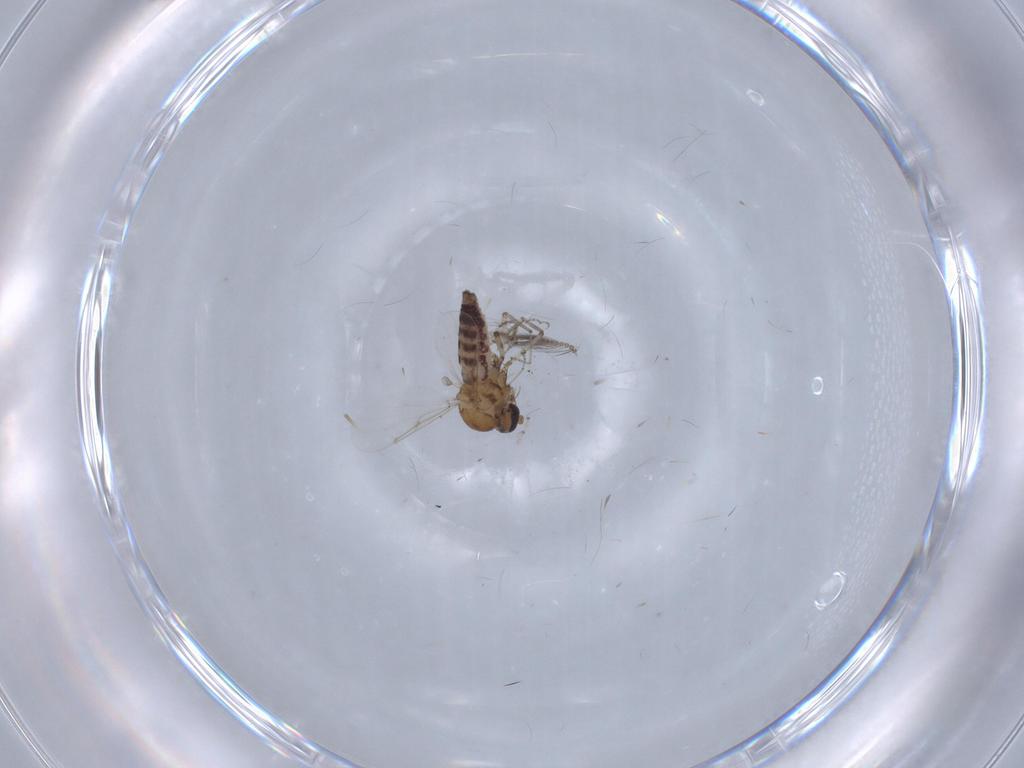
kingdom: Animalia
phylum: Arthropoda
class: Insecta
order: Diptera
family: Ceratopogonidae
